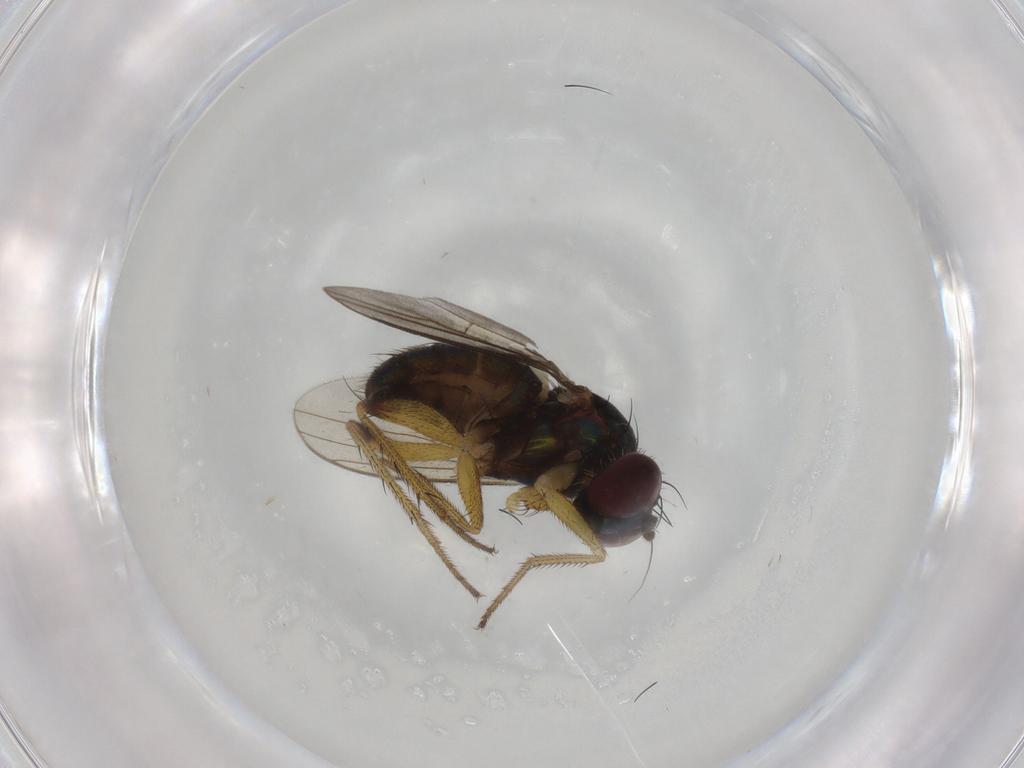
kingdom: Animalia
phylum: Arthropoda
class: Insecta
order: Diptera
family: Dolichopodidae
